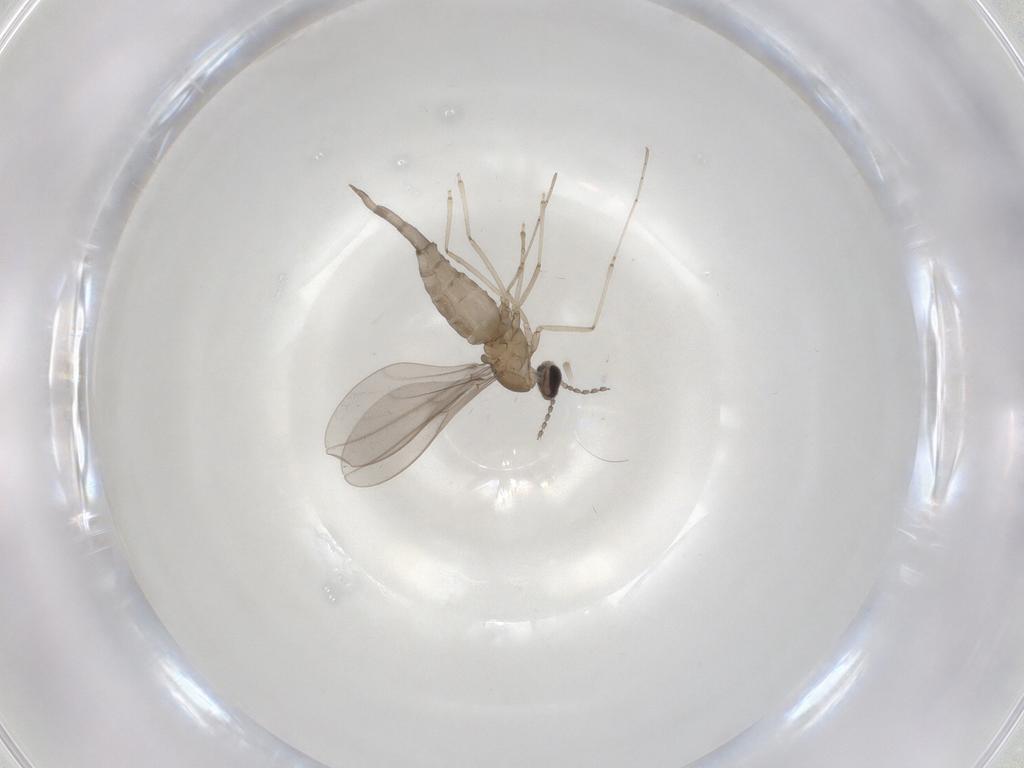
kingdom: Animalia
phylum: Arthropoda
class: Insecta
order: Diptera
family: Cecidomyiidae
